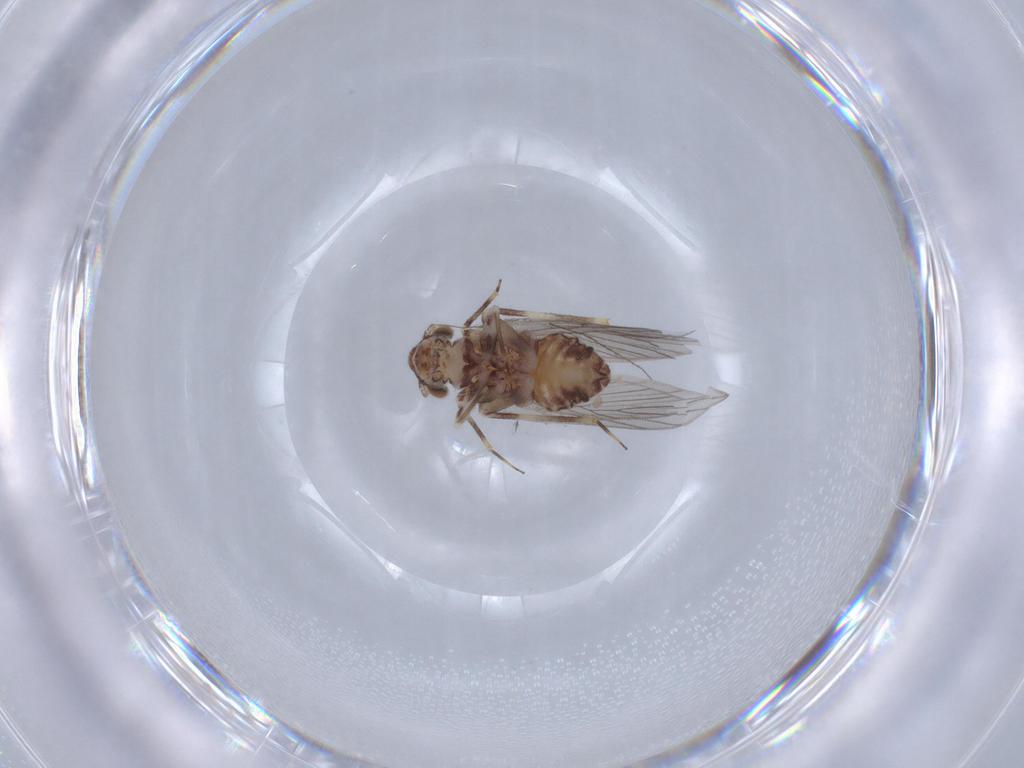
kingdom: Animalia
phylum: Arthropoda
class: Insecta
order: Psocodea
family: Lepidopsocidae
